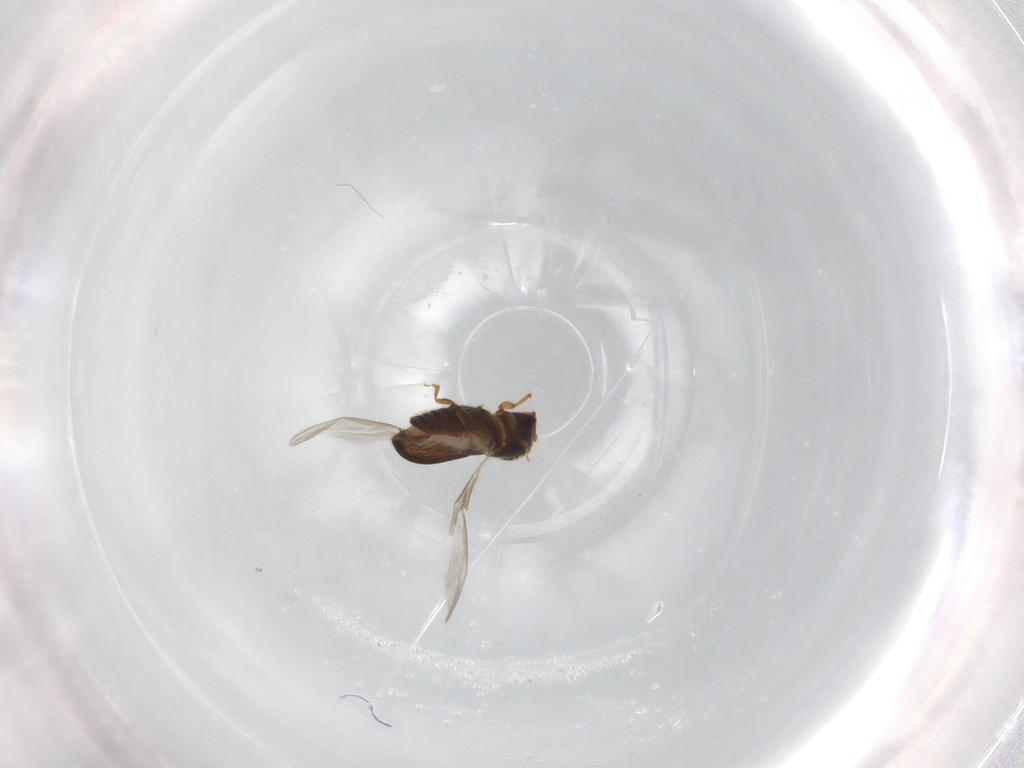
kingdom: Animalia
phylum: Arthropoda
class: Insecta
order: Coleoptera
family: Curculionidae
